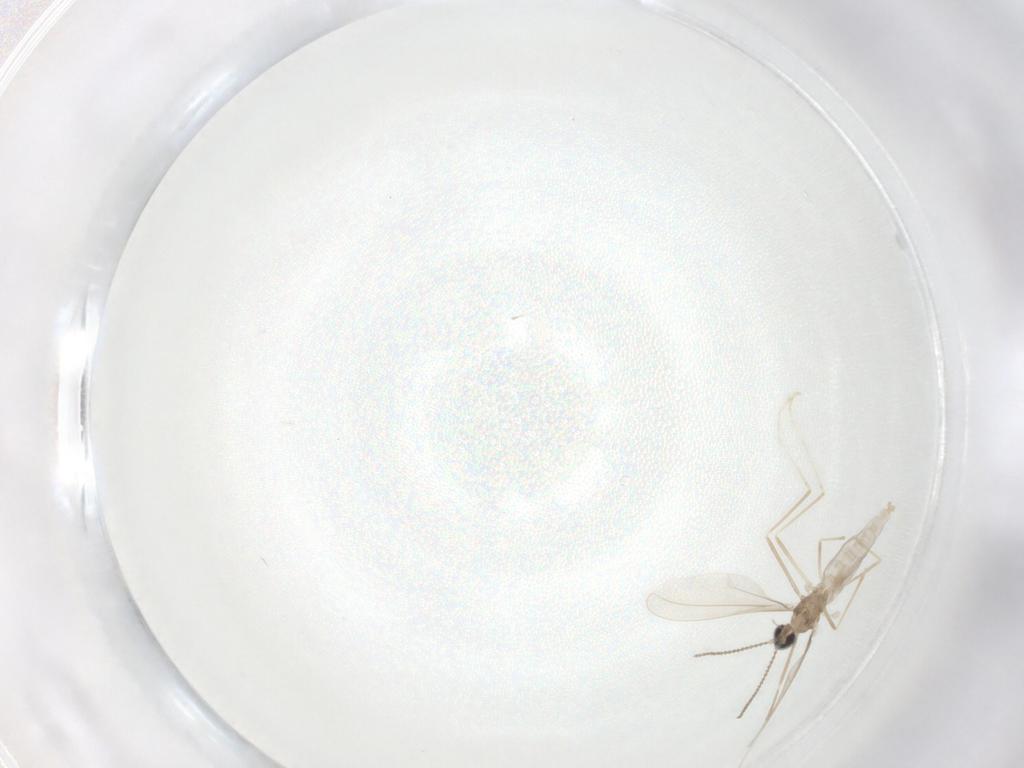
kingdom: Animalia
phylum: Arthropoda
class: Insecta
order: Diptera
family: Cecidomyiidae
